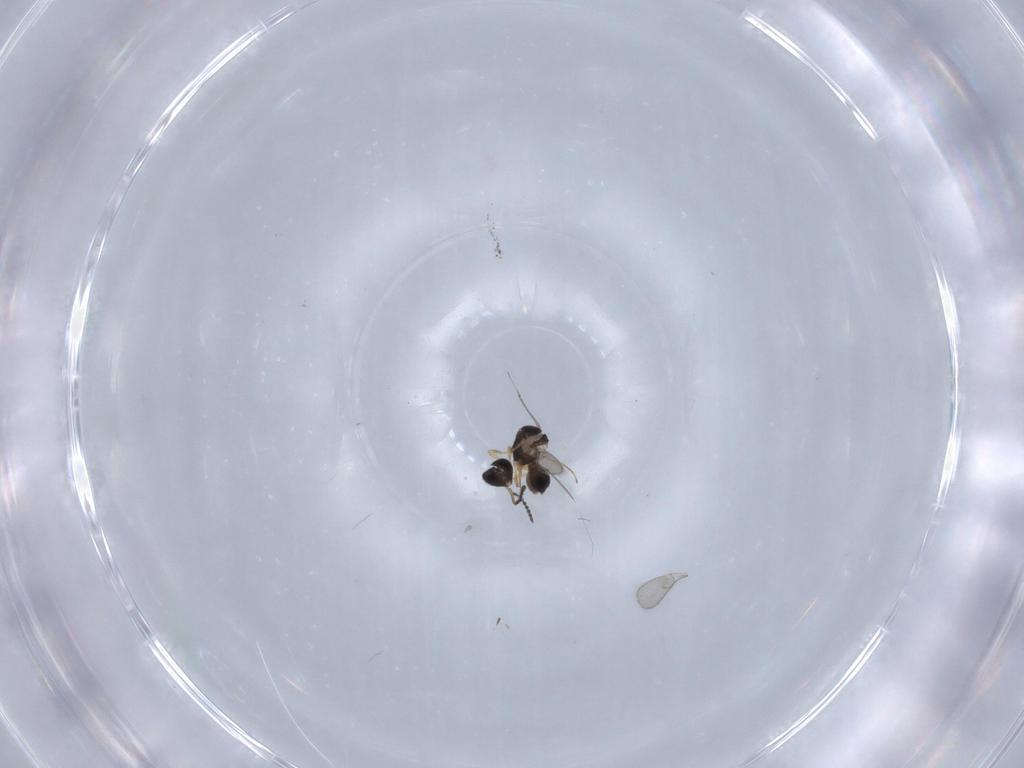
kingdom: Animalia
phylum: Arthropoda
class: Insecta
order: Hymenoptera
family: Scelionidae
